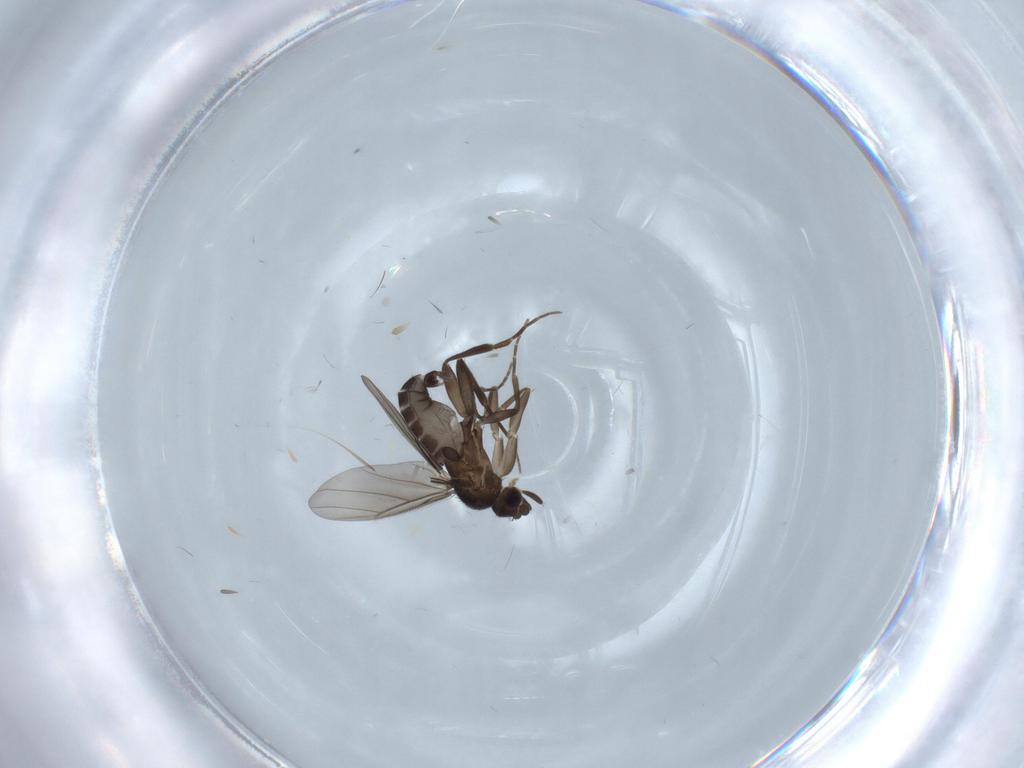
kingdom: Animalia
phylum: Arthropoda
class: Insecta
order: Diptera
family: Phoridae
